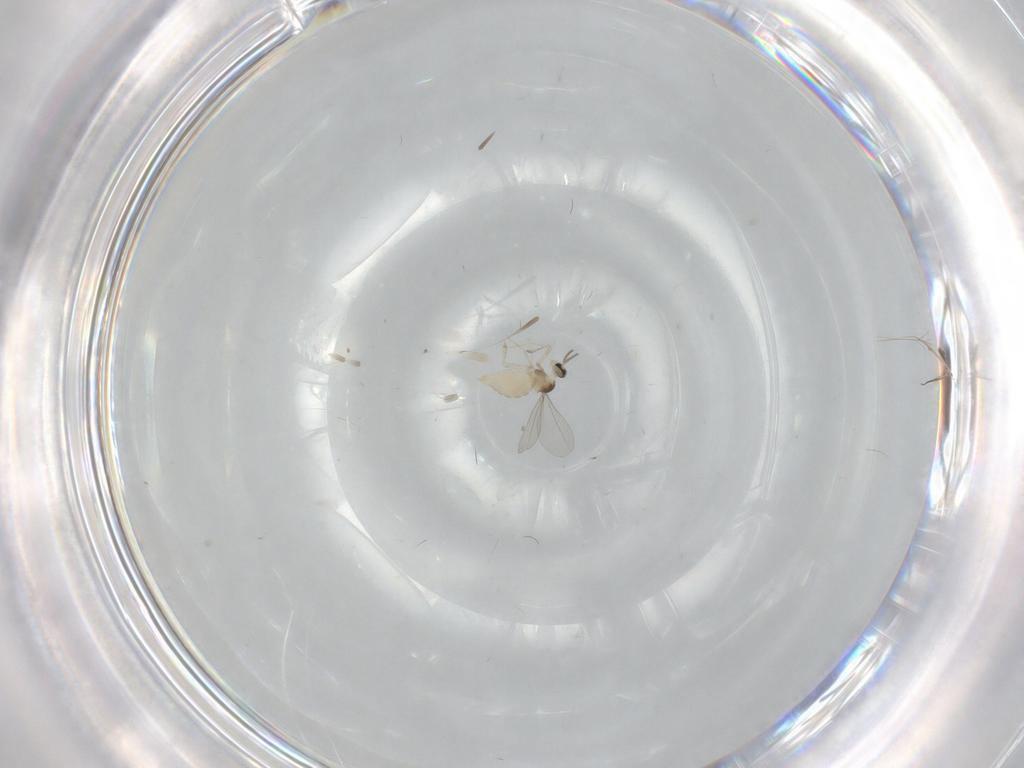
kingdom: Animalia
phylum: Arthropoda
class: Insecta
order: Diptera
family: Cecidomyiidae
